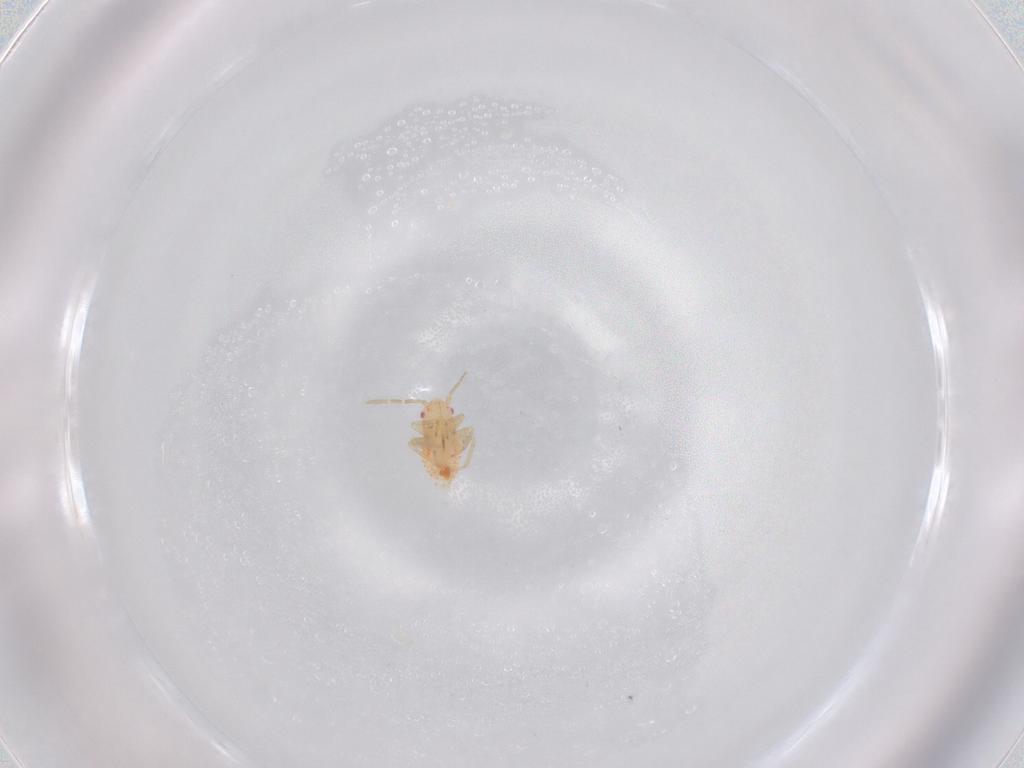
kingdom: Animalia
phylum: Arthropoda
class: Insecta
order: Hemiptera
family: Miridae
